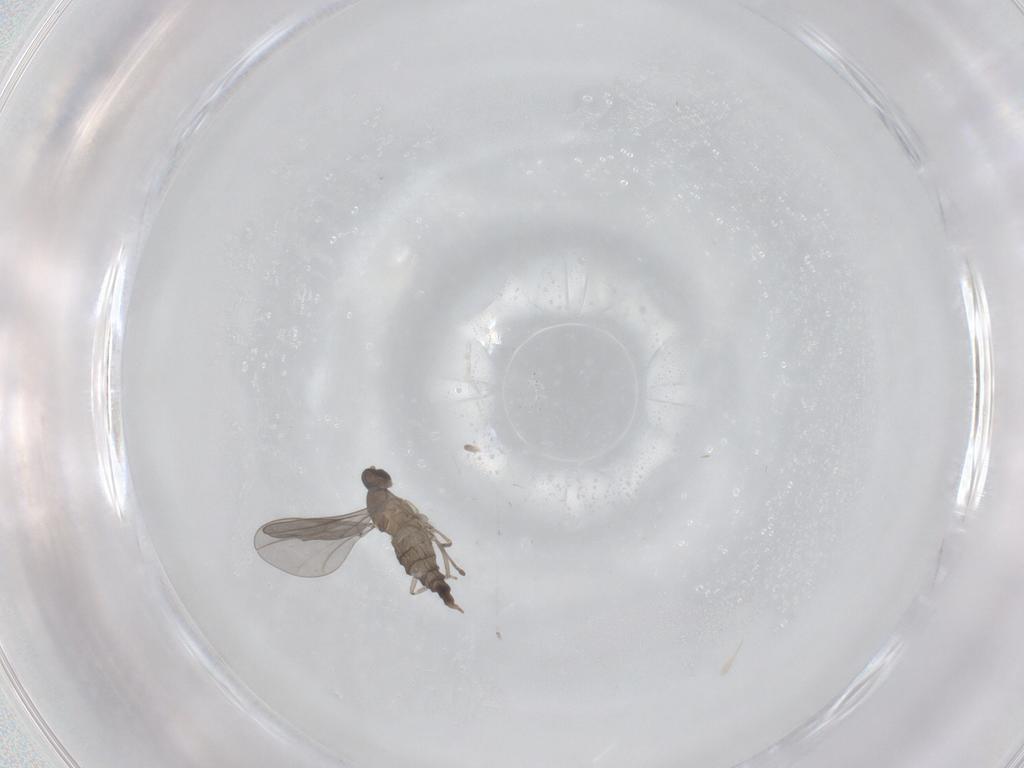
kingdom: Animalia
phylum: Arthropoda
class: Insecta
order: Diptera
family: Cecidomyiidae
